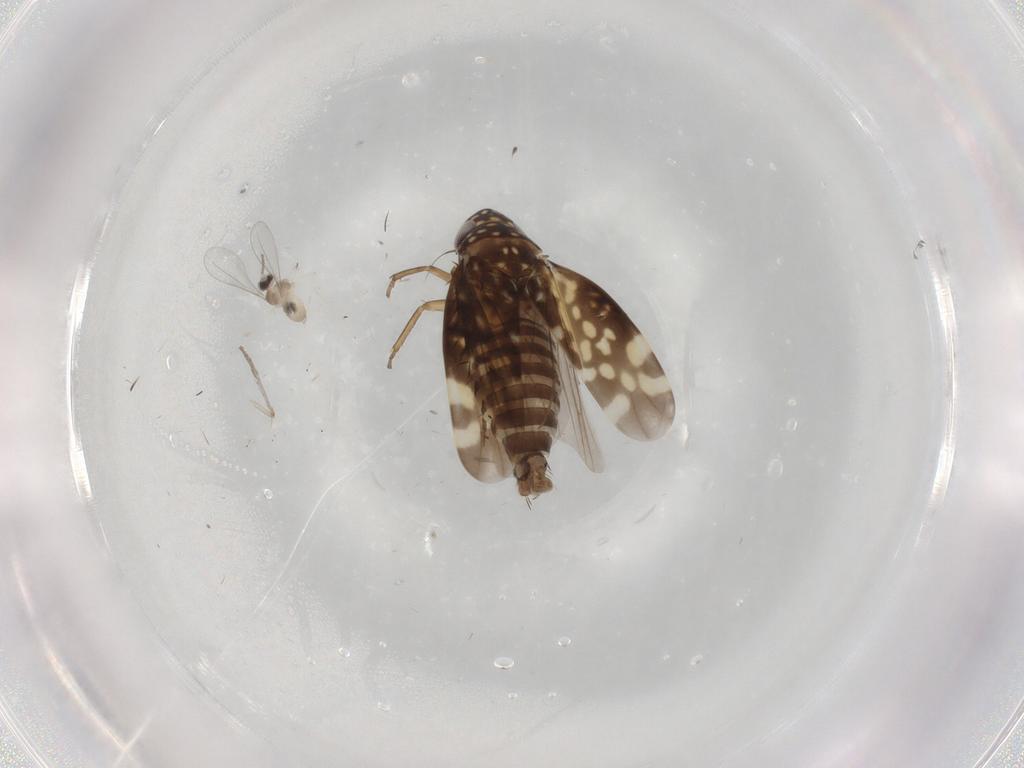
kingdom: Animalia
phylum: Arthropoda
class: Insecta
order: Hemiptera
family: Cicadellidae
